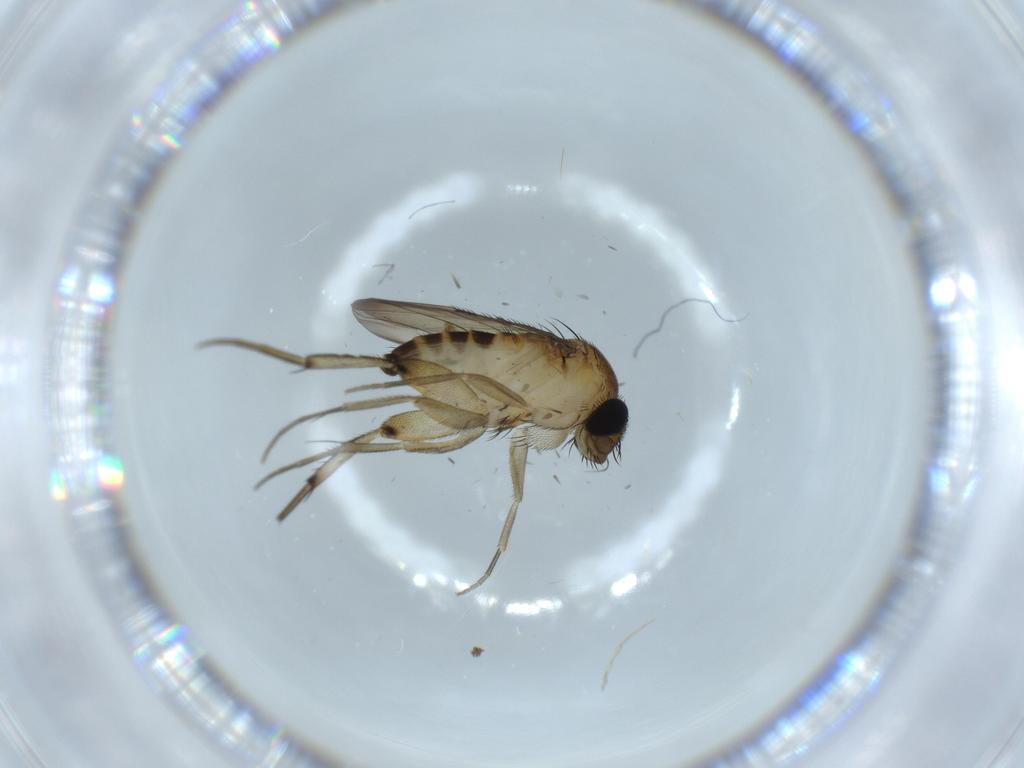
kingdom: Animalia
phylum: Arthropoda
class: Insecta
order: Diptera
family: Phoridae
